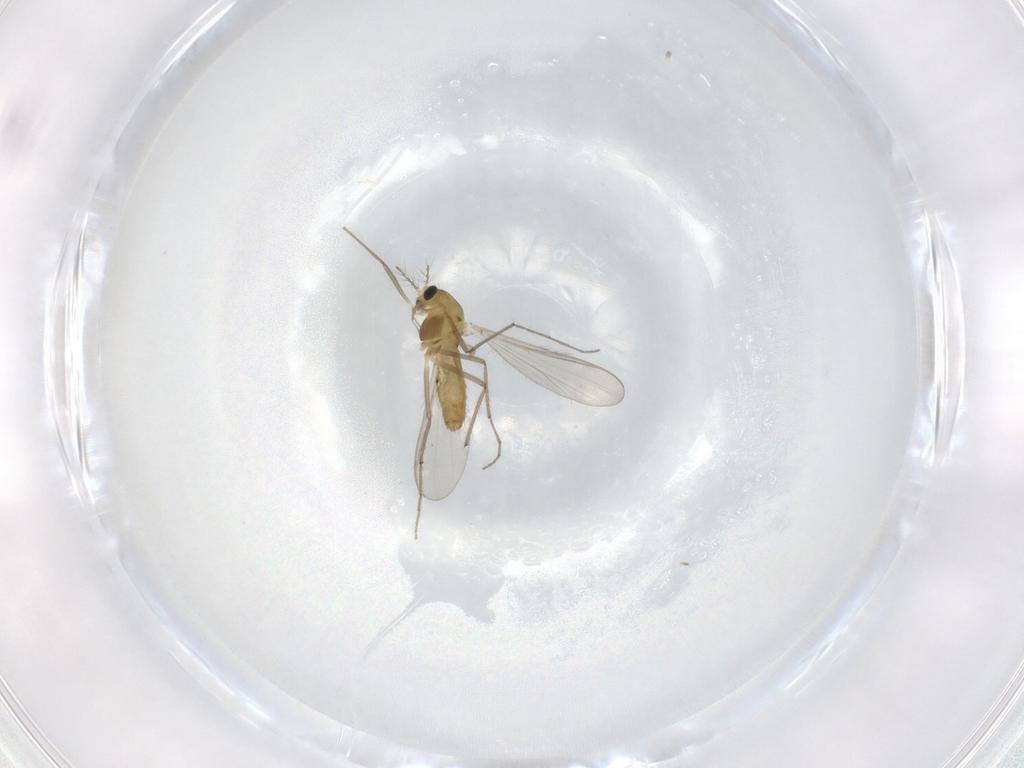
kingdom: Animalia
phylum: Arthropoda
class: Insecta
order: Diptera
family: Chironomidae
